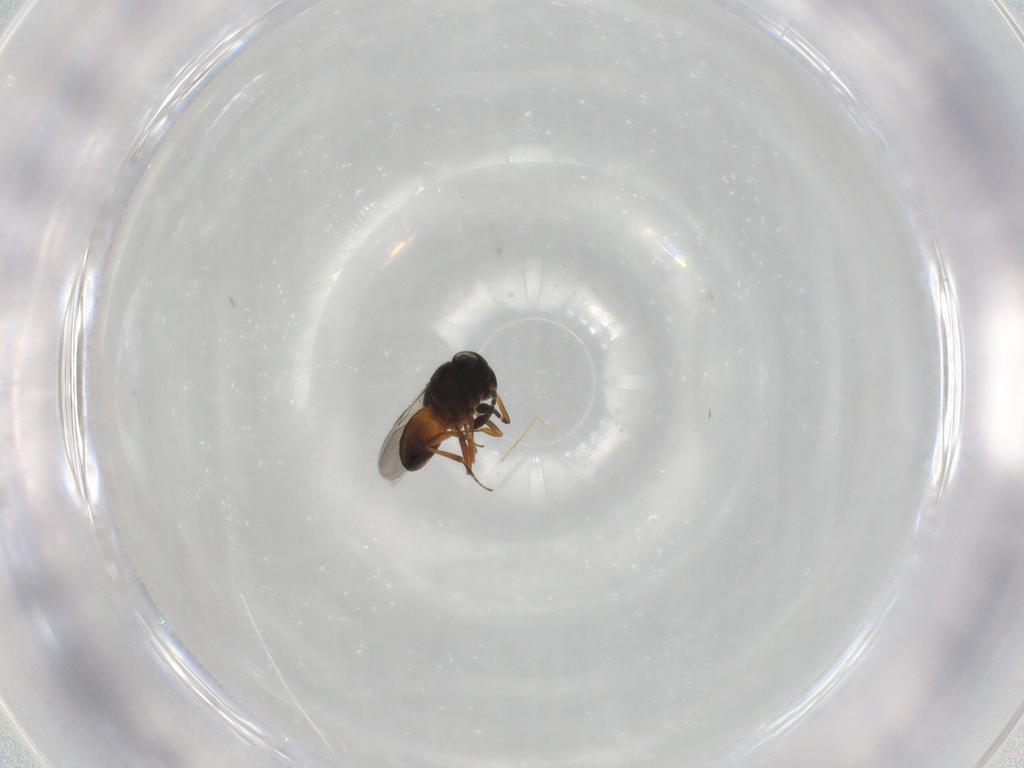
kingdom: Animalia
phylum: Arthropoda
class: Insecta
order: Hymenoptera
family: Scelionidae
